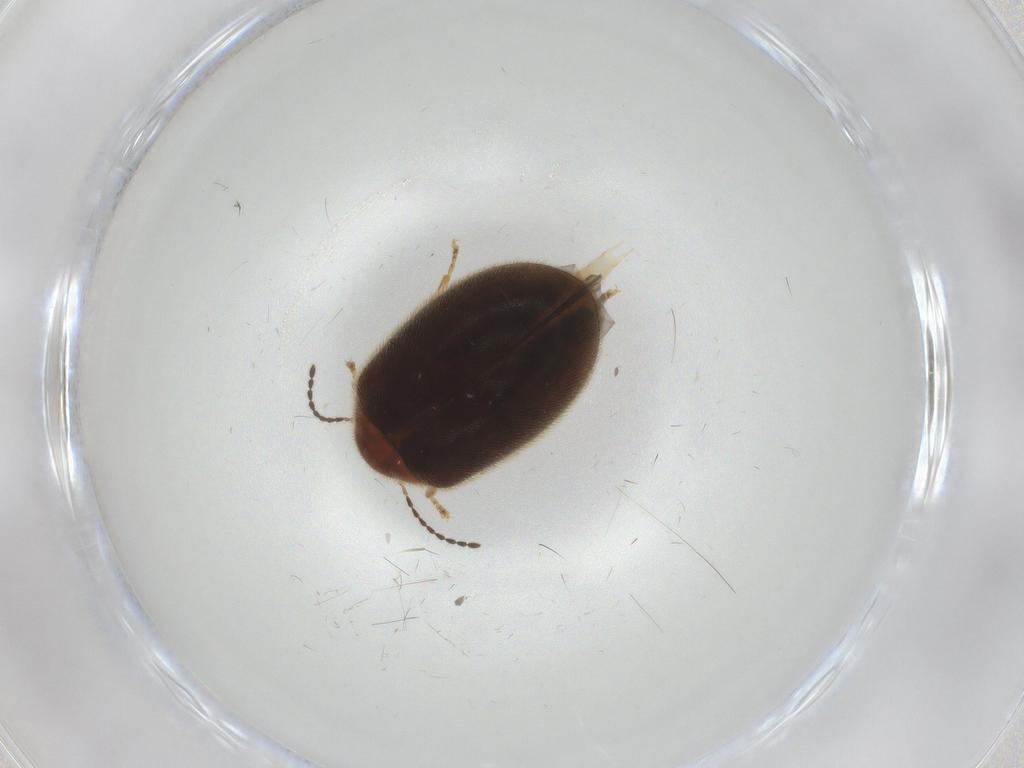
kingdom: Animalia
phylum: Arthropoda
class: Insecta
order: Coleoptera
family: Scirtidae
